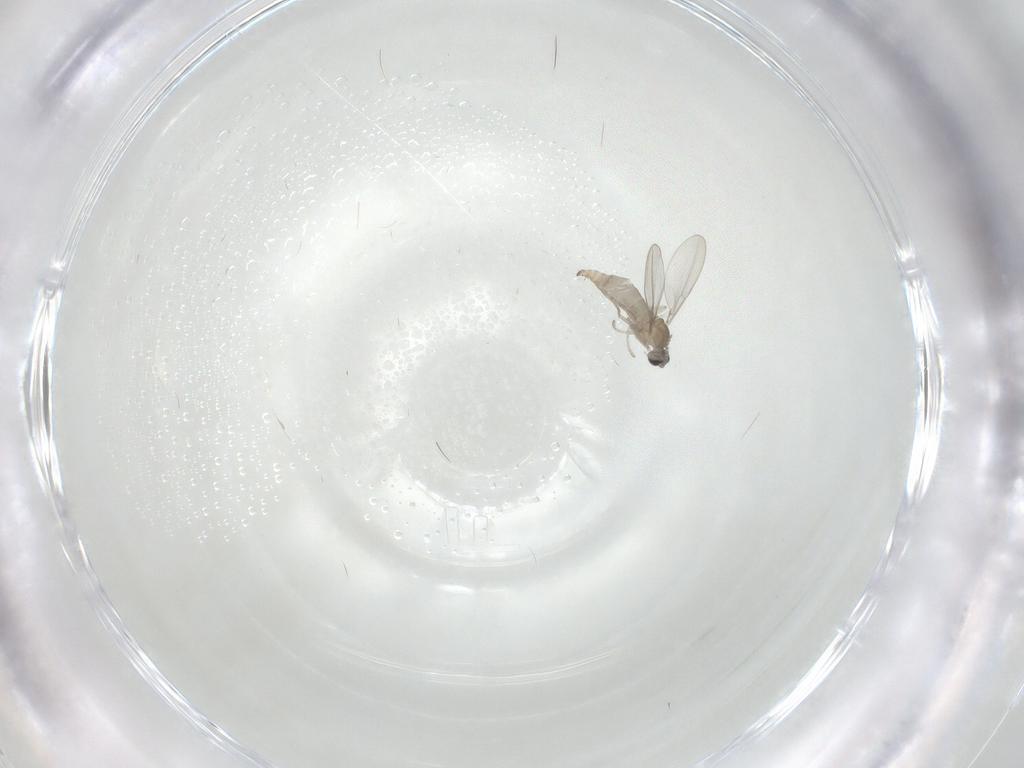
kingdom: Animalia
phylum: Arthropoda
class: Insecta
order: Diptera
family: Cecidomyiidae
